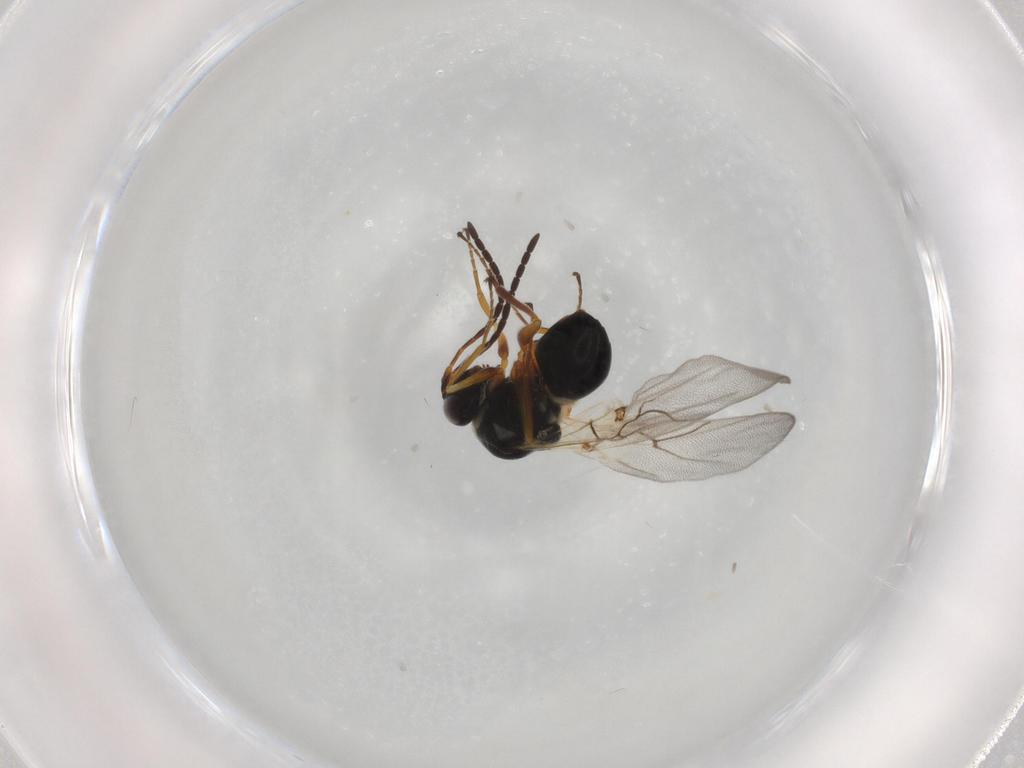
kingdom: Animalia
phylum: Arthropoda
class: Insecta
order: Hymenoptera
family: Figitidae
